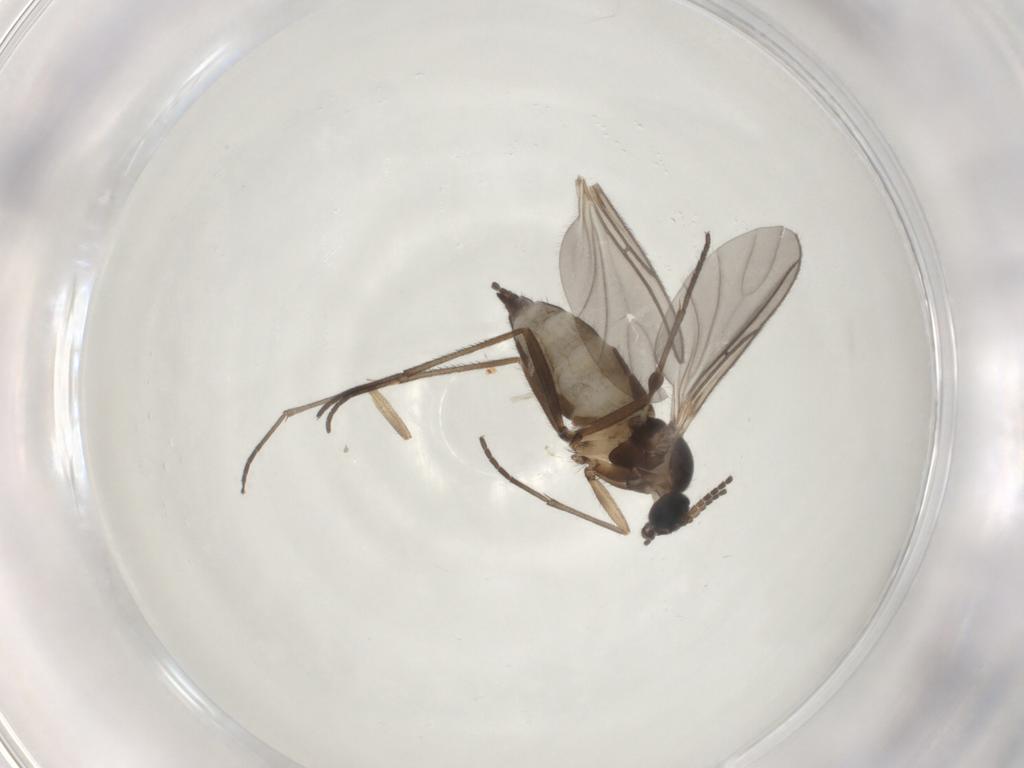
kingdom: Animalia
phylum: Arthropoda
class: Insecta
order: Diptera
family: Sciaridae
